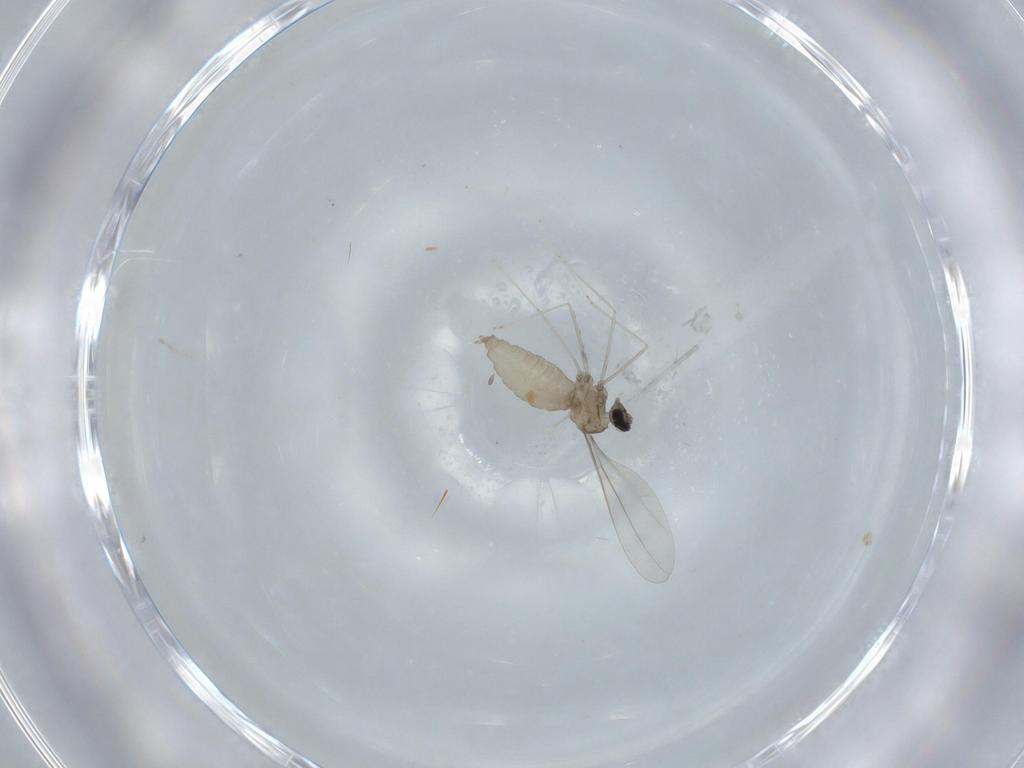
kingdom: Animalia
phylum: Arthropoda
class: Insecta
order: Diptera
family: Cecidomyiidae
